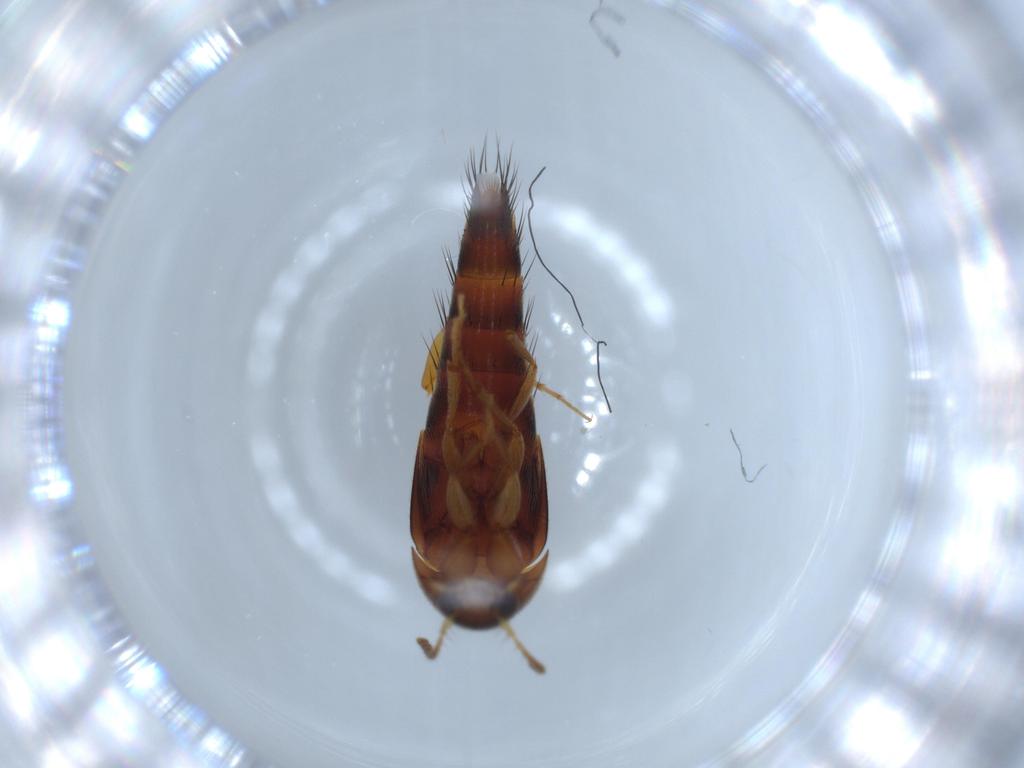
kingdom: Animalia
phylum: Arthropoda
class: Insecta
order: Coleoptera
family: Staphylinidae
